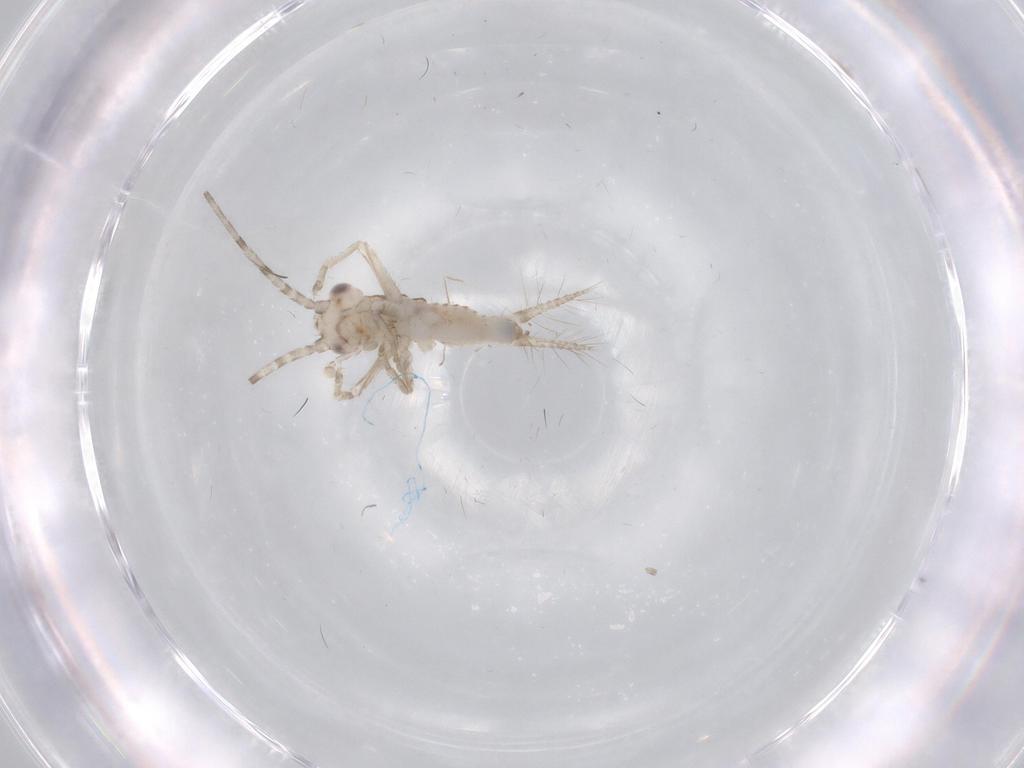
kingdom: Animalia
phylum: Arthropoda
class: Insecta
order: Orthoptera
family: Trigonidiidae
